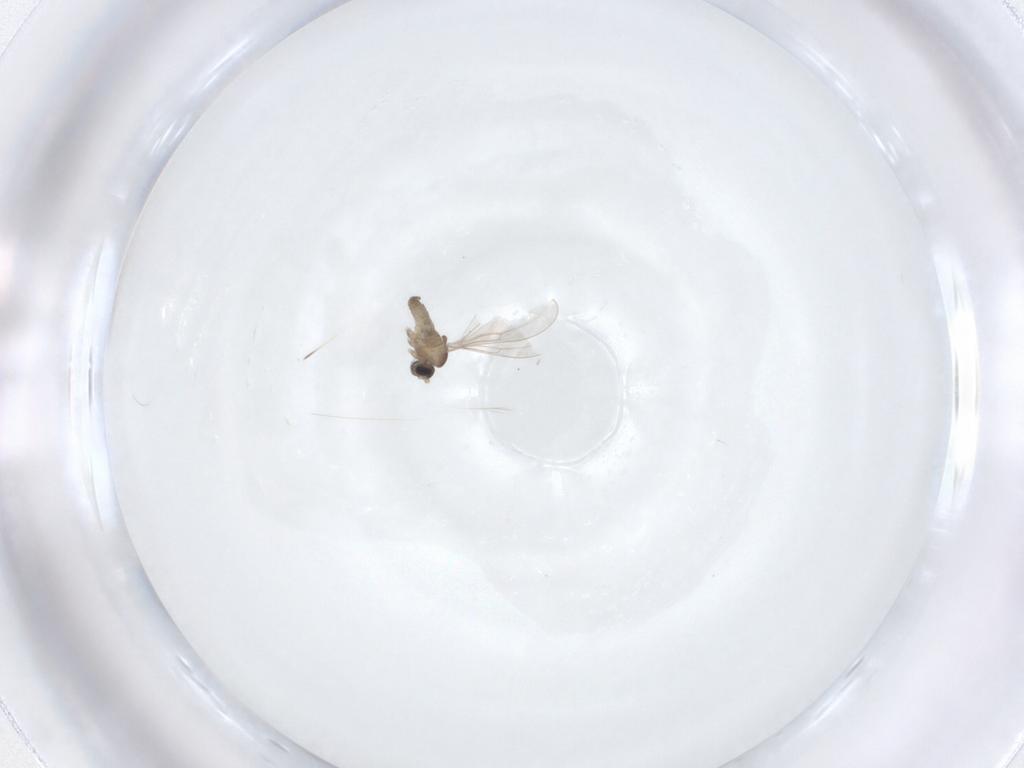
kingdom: Animalia
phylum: Arthropoda
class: Insecta
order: Diptera
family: Cecidomyiidae
